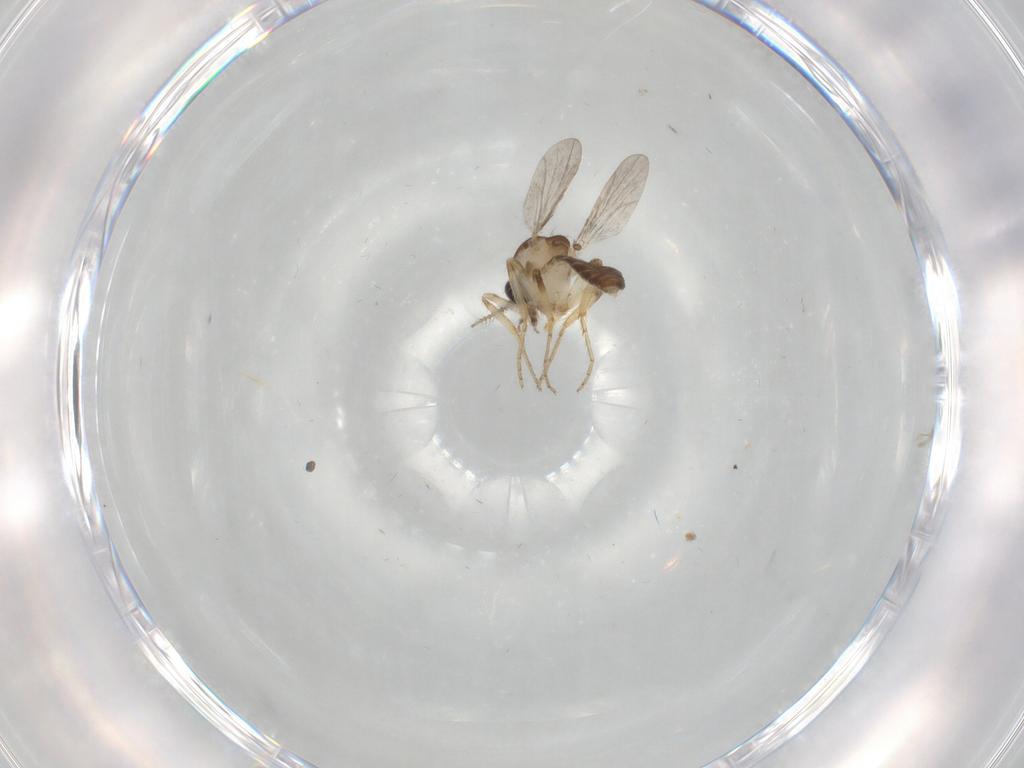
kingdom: Animalia
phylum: Arthropoda
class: Insecta
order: Diptera
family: Ceratopogonidae
